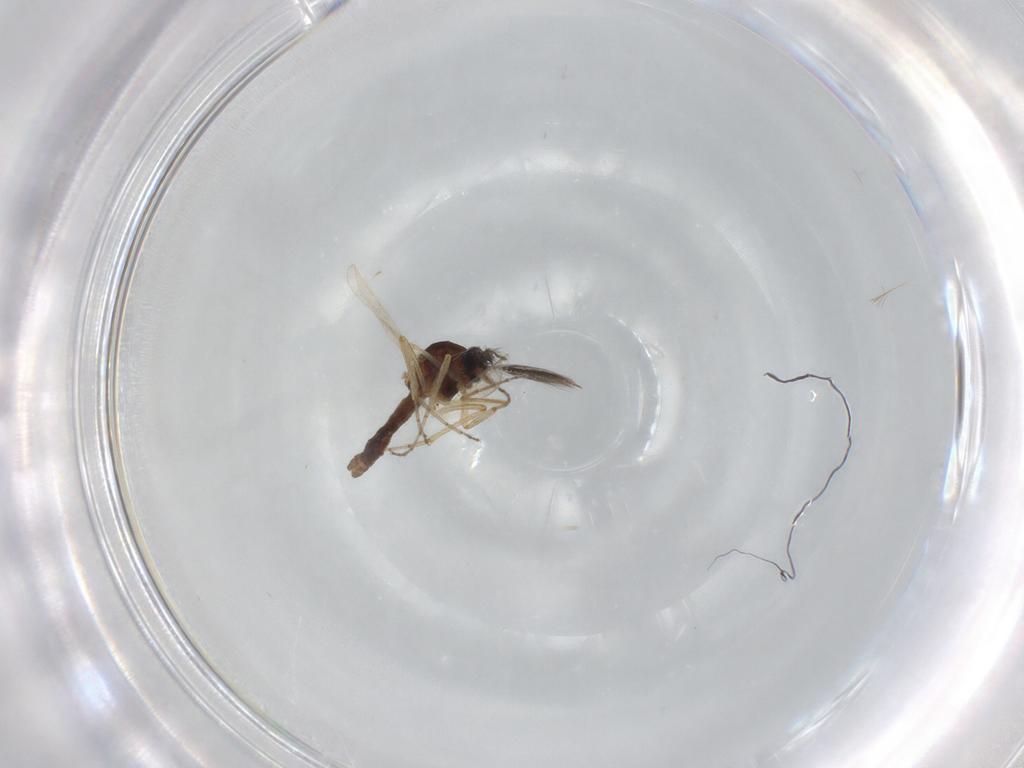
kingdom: Animalia
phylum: Arthropoda
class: Insecta
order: Diptera
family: Ceratopogonidae
